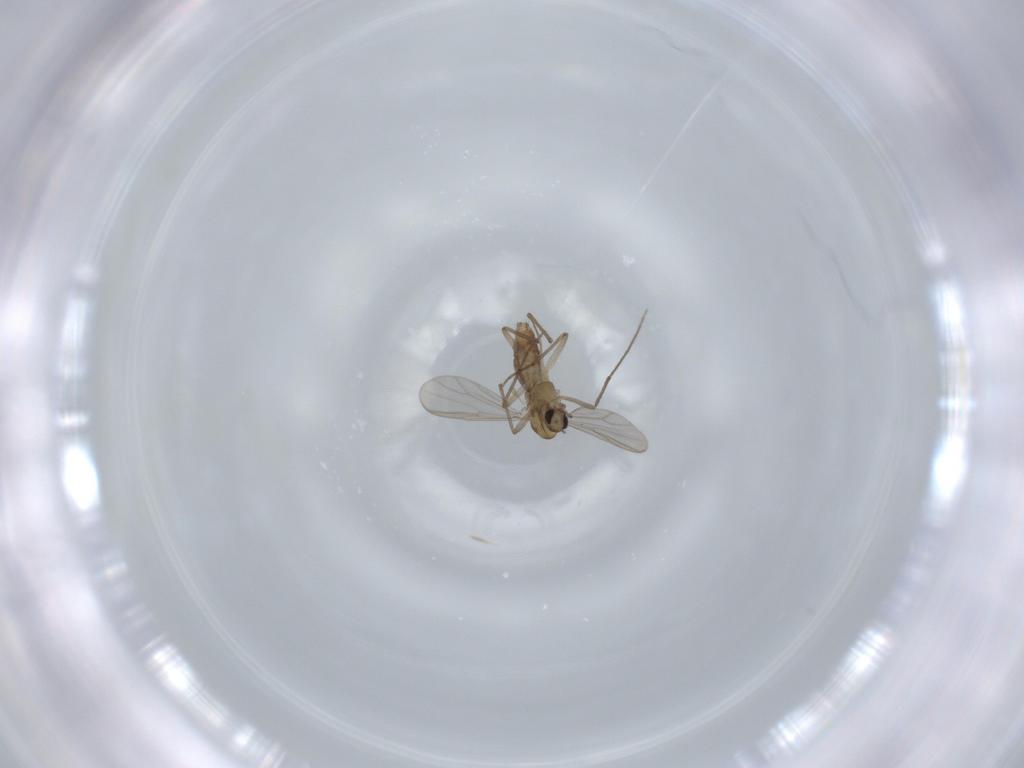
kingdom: Animalia
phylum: Arthropoda
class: Insecta
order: Diptera
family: Chironomidae
